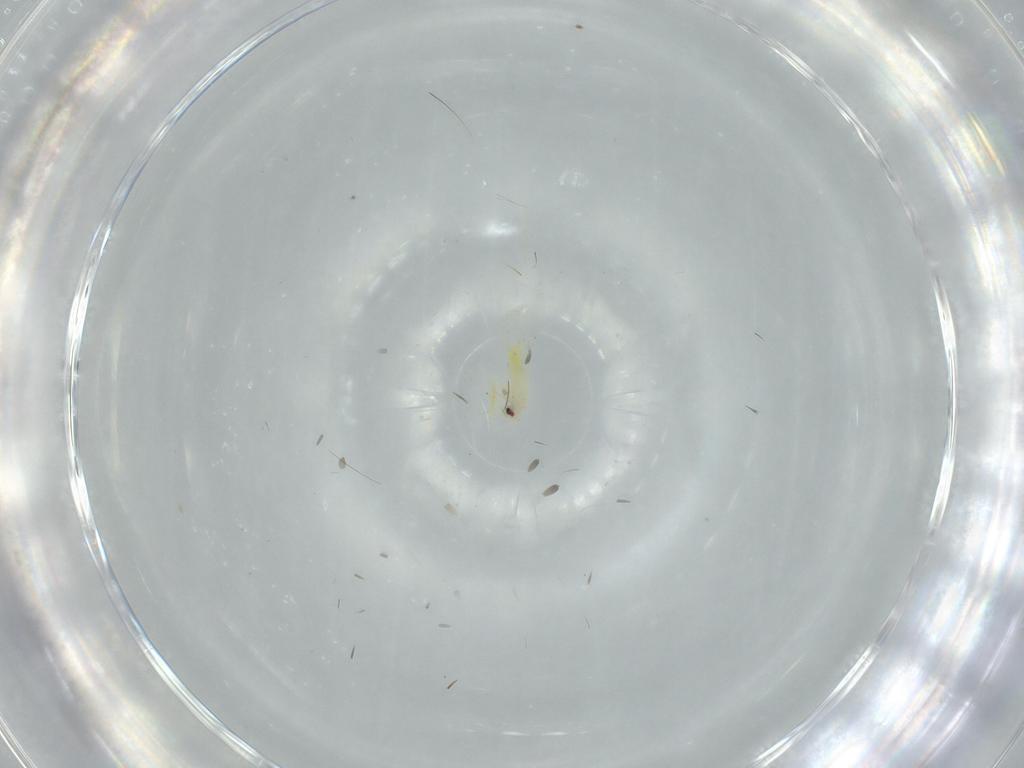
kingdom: Animalia
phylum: Arthropoda
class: Insecta
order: Hemiptera
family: Aleyrodidae
